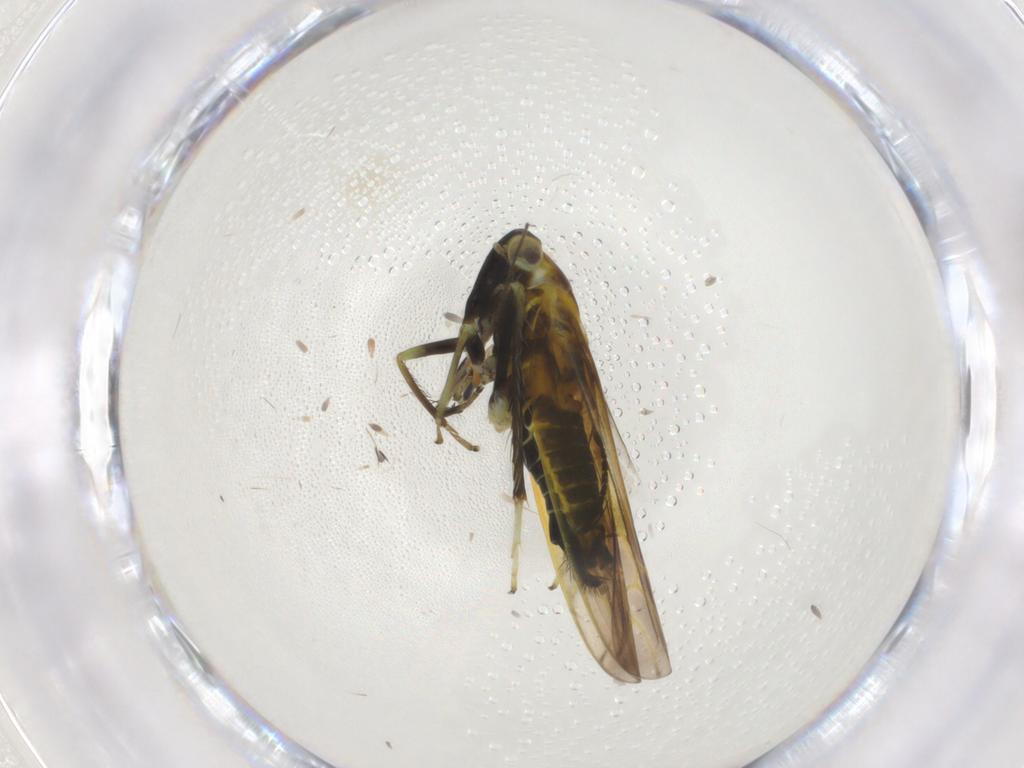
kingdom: Animalia
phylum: Arthropoda
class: Insecta
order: Hemiptera
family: Cicadellidae
